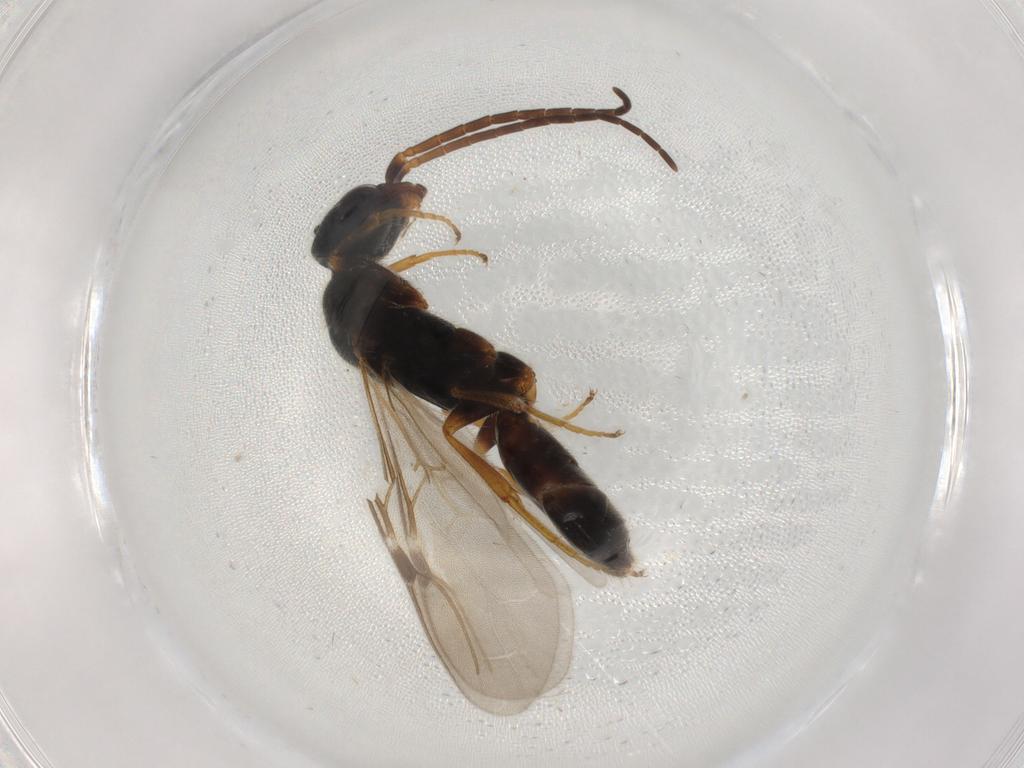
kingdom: Animalia
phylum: Arthropoda
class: Insecta
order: Hymenoptera
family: Bethylidae
